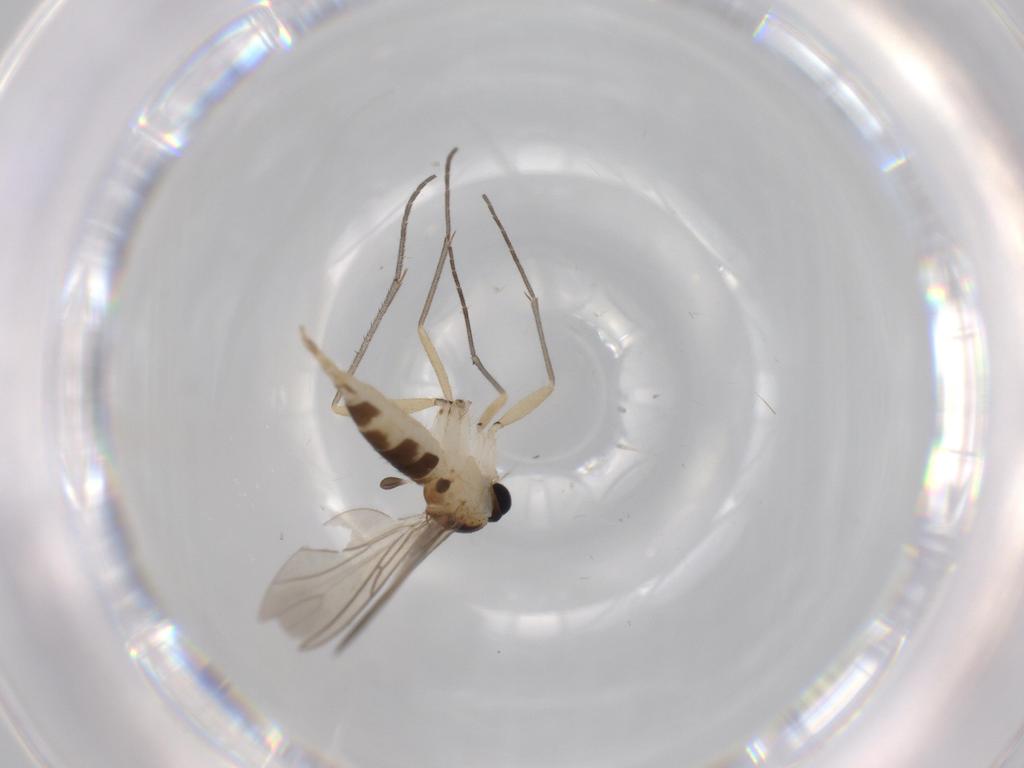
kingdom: Animalia
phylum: Arthropoda
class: Insecta
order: Diptera
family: Sciaridae
